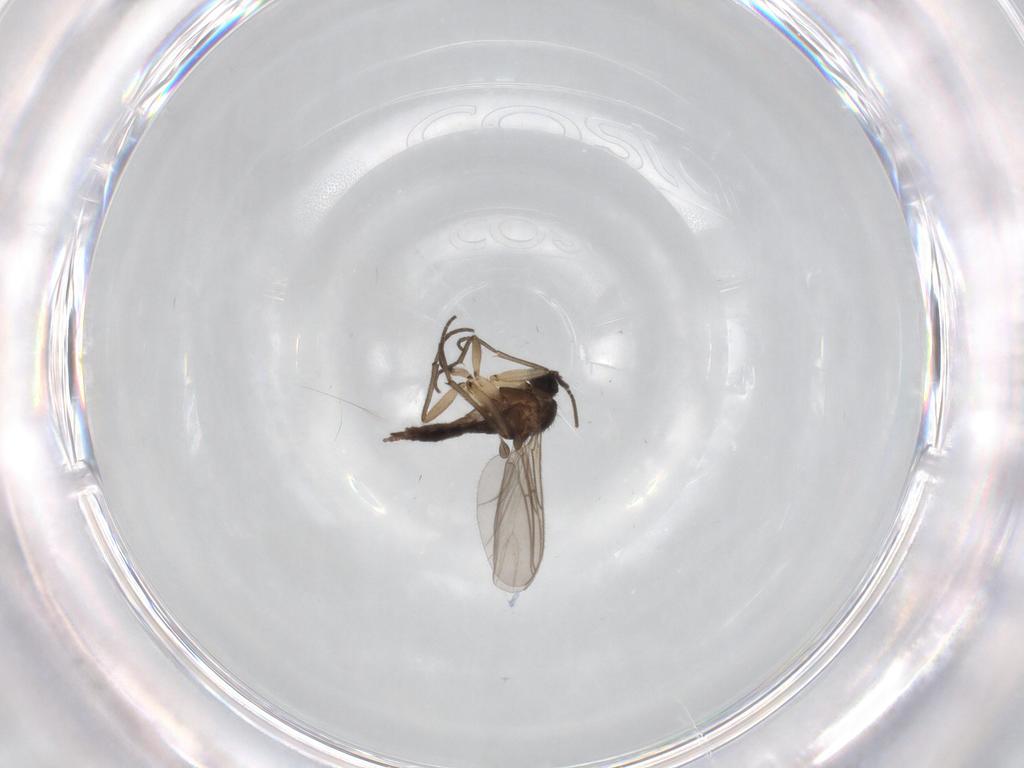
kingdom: Animalia
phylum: Arthropoda
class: Insecta
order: Diptera
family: Sciaridae
